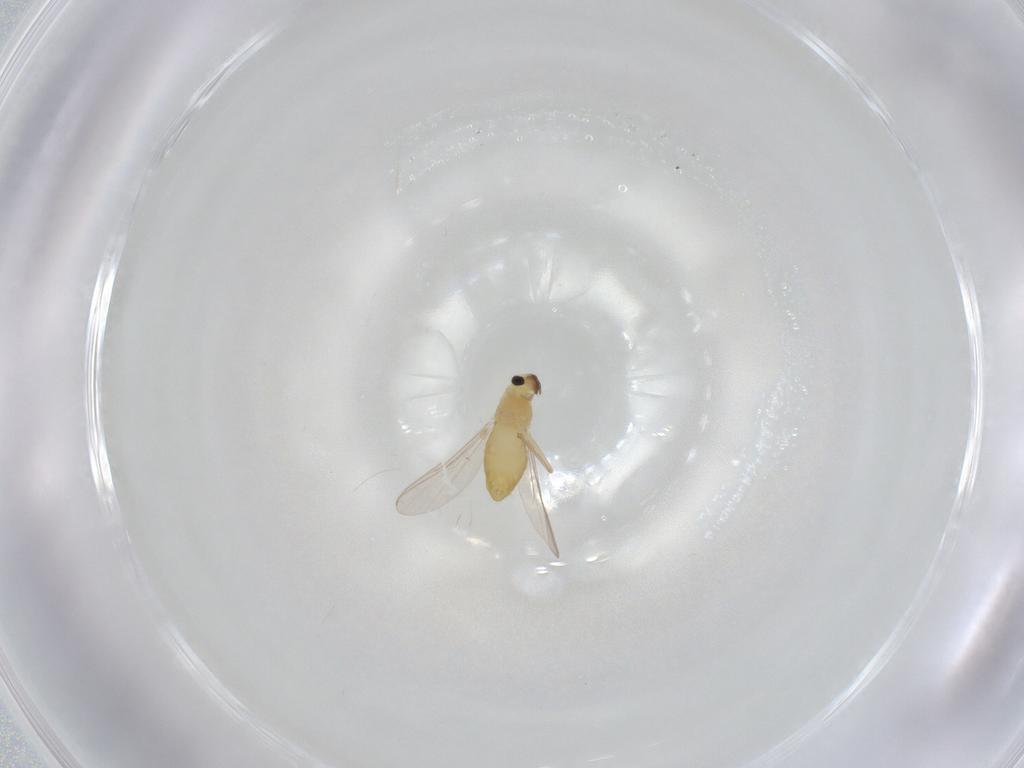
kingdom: Animalia
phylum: Arthropoda
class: Insecta
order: Diptera
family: Chironomidae
